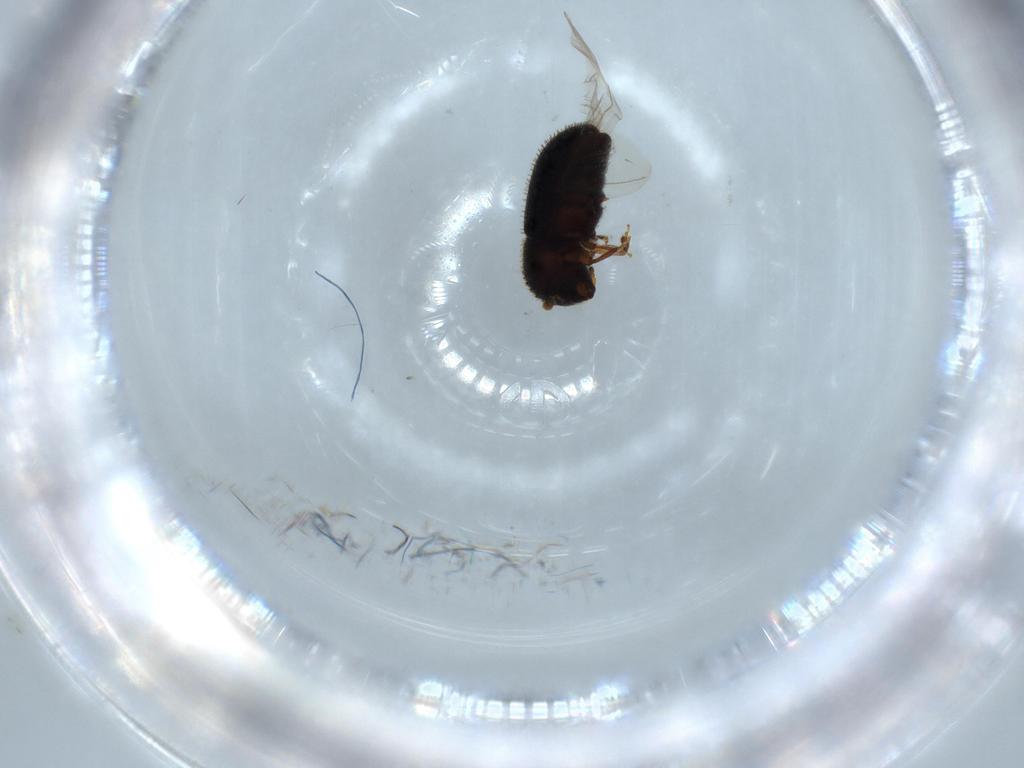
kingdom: Animalia
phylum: Arthropoda
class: Insecta
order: Coleoptera
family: Curculionidae
